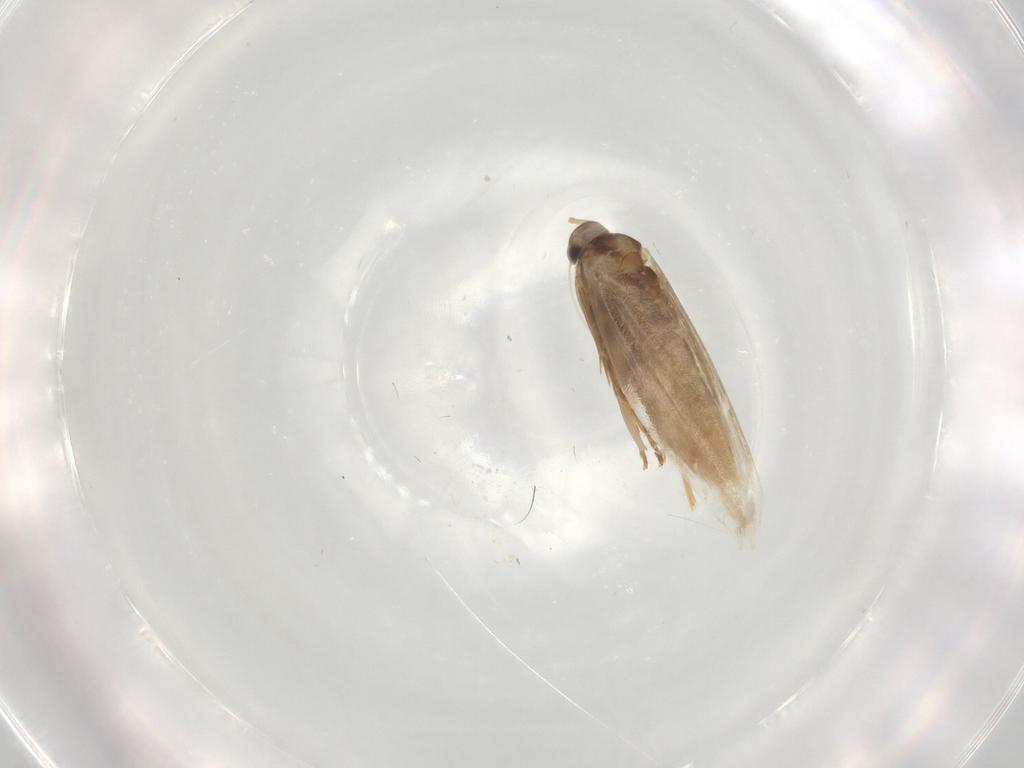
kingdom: Animalia
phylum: Arthropoda
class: Insecta
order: Lepidoptera
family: Gracillariidae
